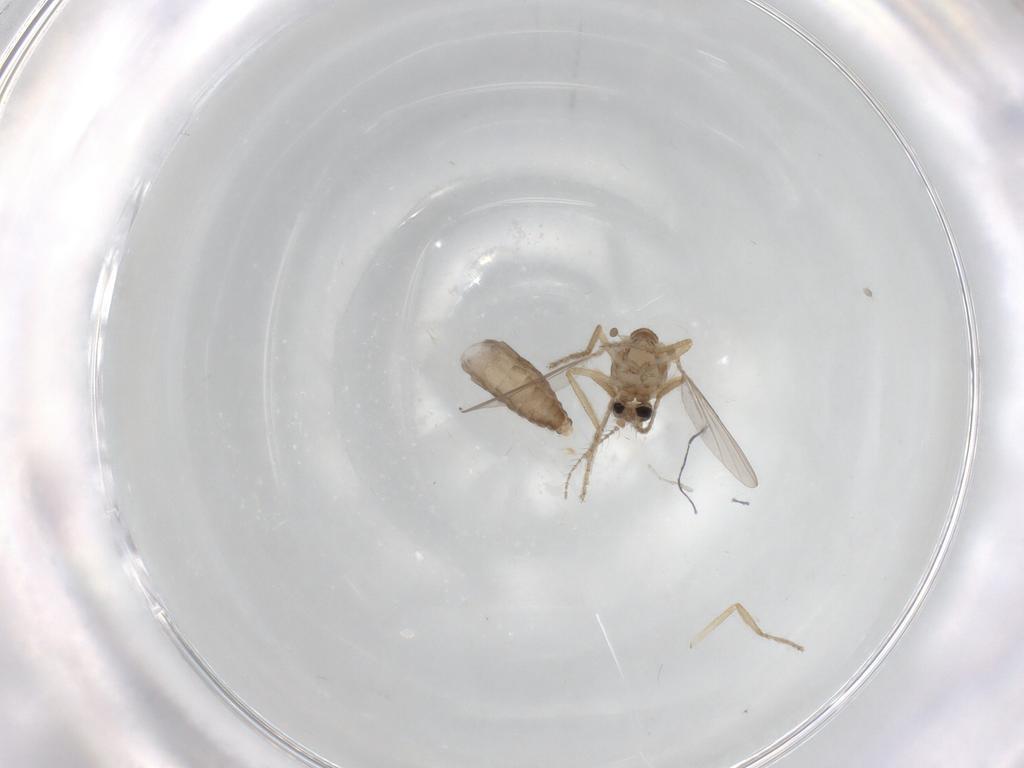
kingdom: Animalia
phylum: Arthropoda
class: Insecta
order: Diptera
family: Ceratopogonidae
